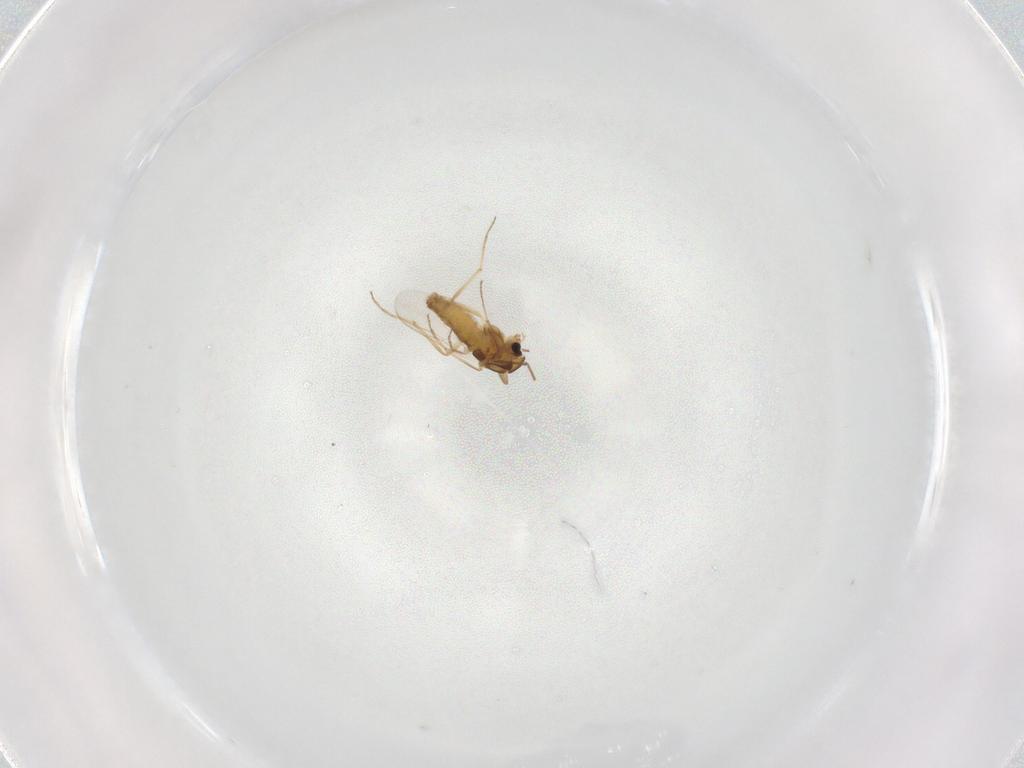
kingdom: Animalia
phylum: Arthropoda
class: Insecta
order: Diptera
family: Chironomidae
